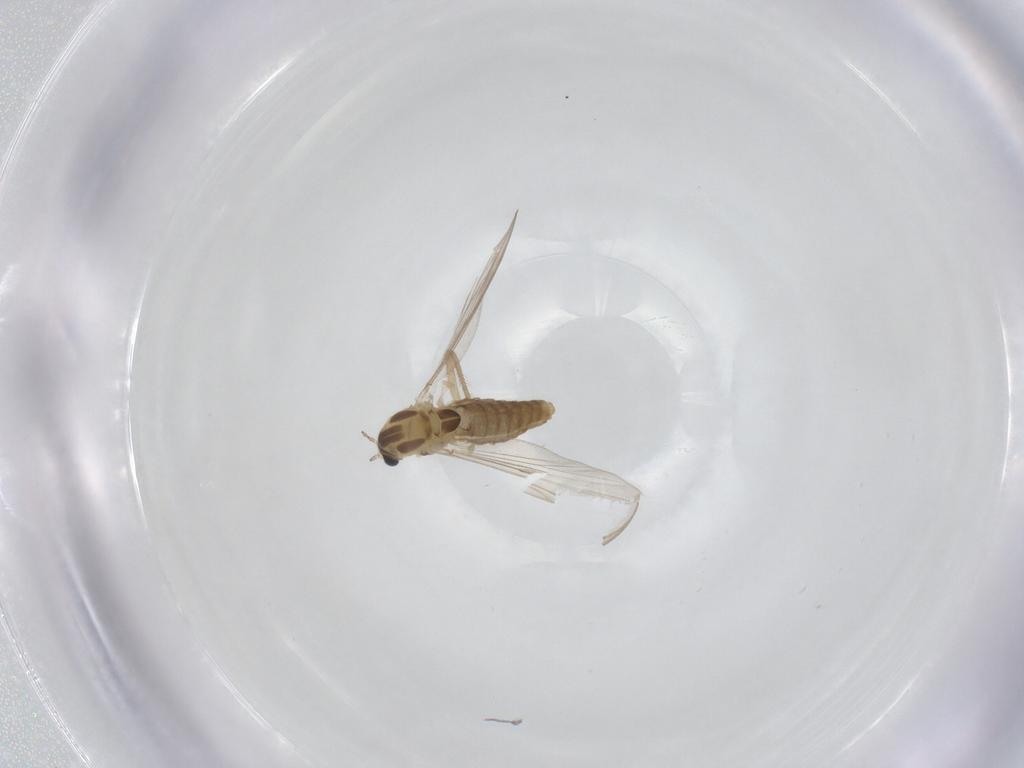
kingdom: Animalia
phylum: Arthropoda
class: Insecta
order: Diptera
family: Chironomidae
